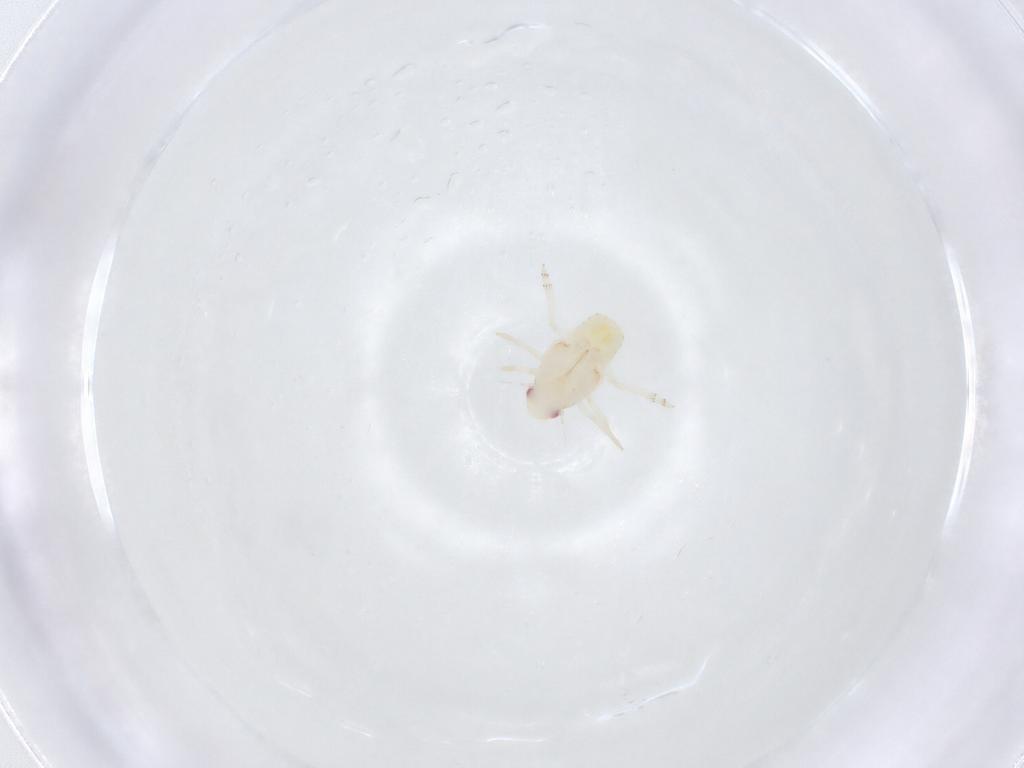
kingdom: Animalia
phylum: Arthropoda
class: Insecta
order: Hemiptera
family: Flatidae
